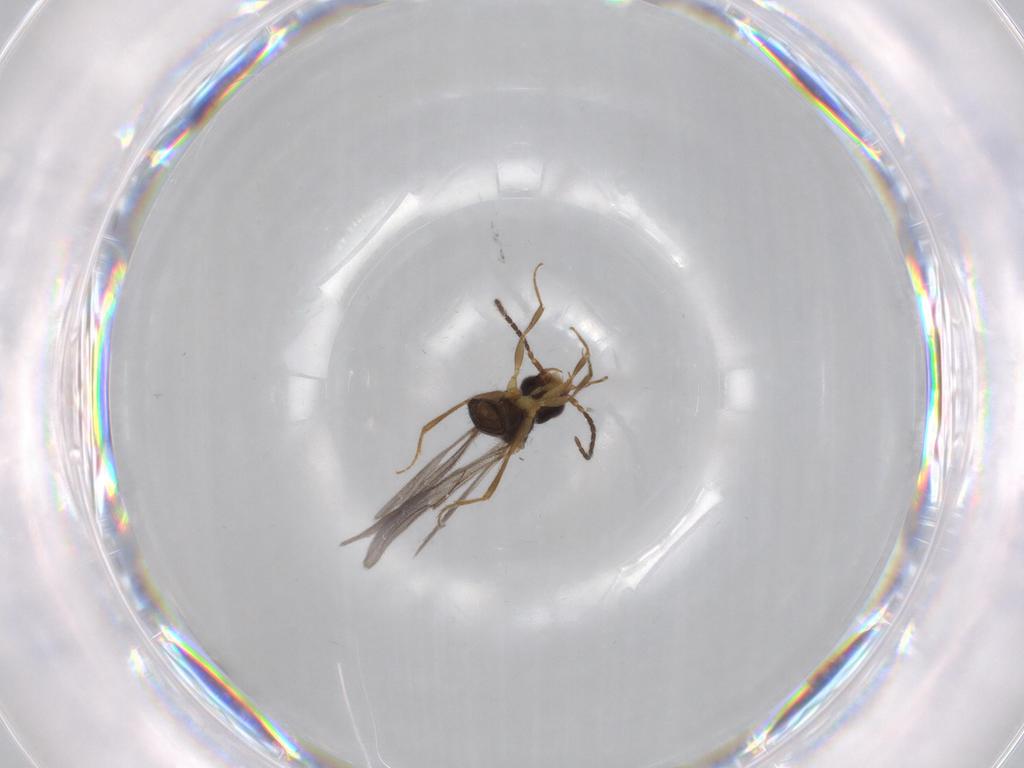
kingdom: Animalia
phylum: Arthropoda
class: Insecta
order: Hymenoptera
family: Bethylidae
